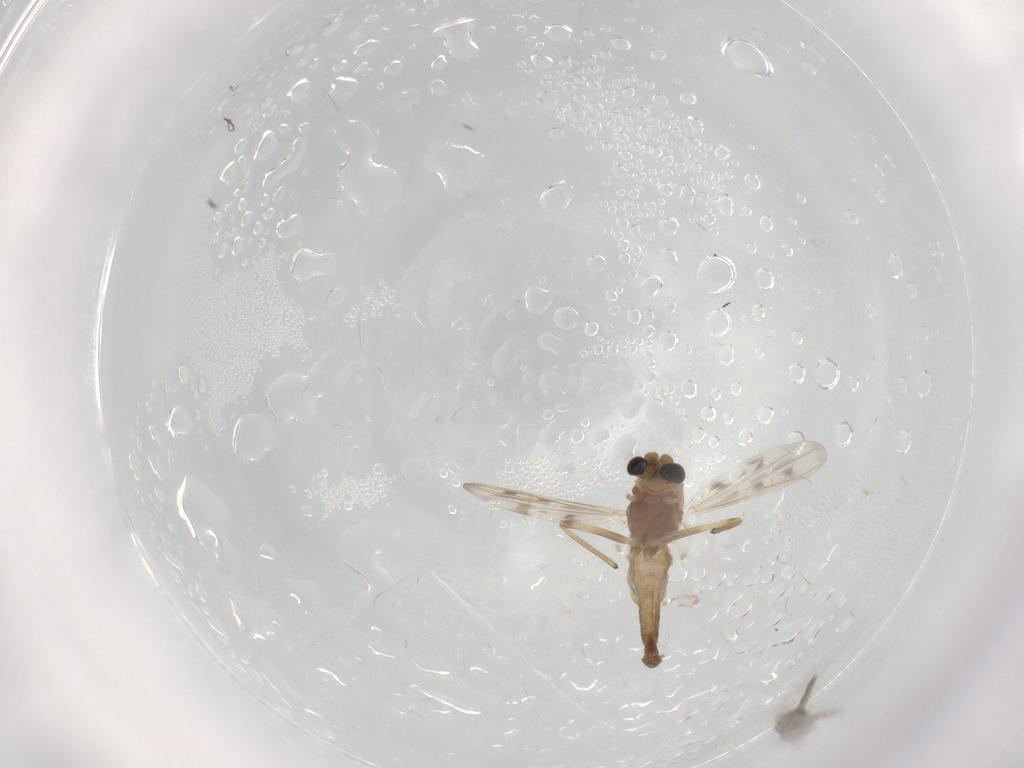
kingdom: Animalia
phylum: Arthropoda
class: Insecta
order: Diptera
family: Chironomidae
